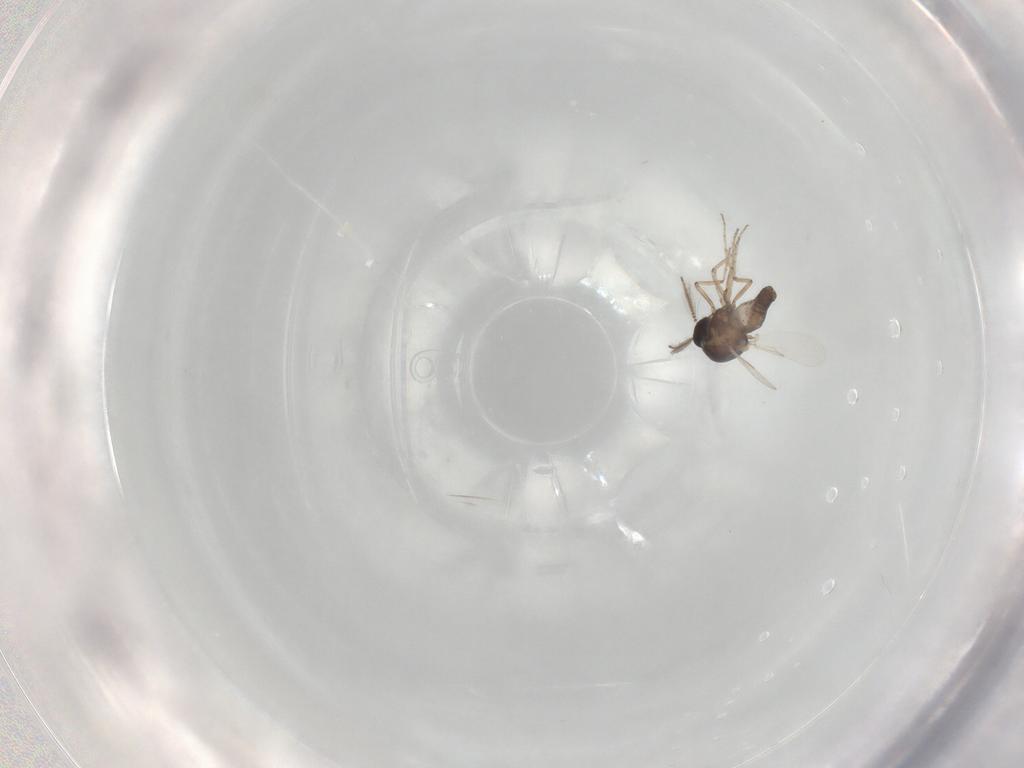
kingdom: Animalia
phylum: Arthropoda
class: Insecta
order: Diptera
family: Ceratopogonidae
